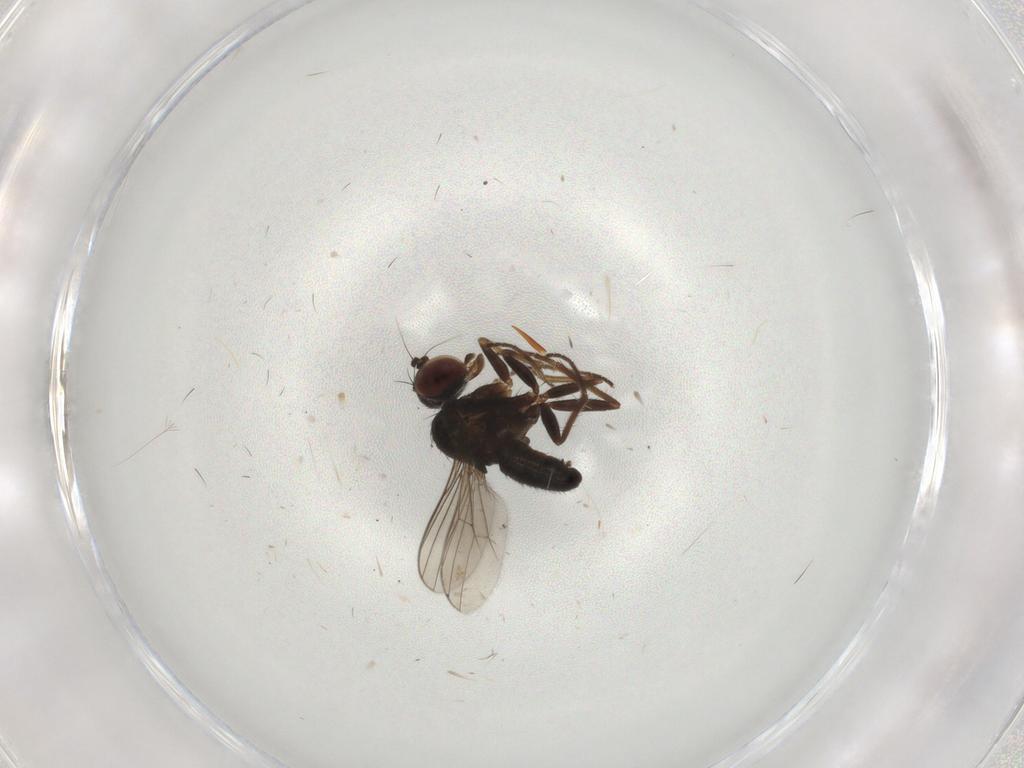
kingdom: Animalia
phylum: Arthropoda
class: Insecta
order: Diptera
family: Dolichopodidae
